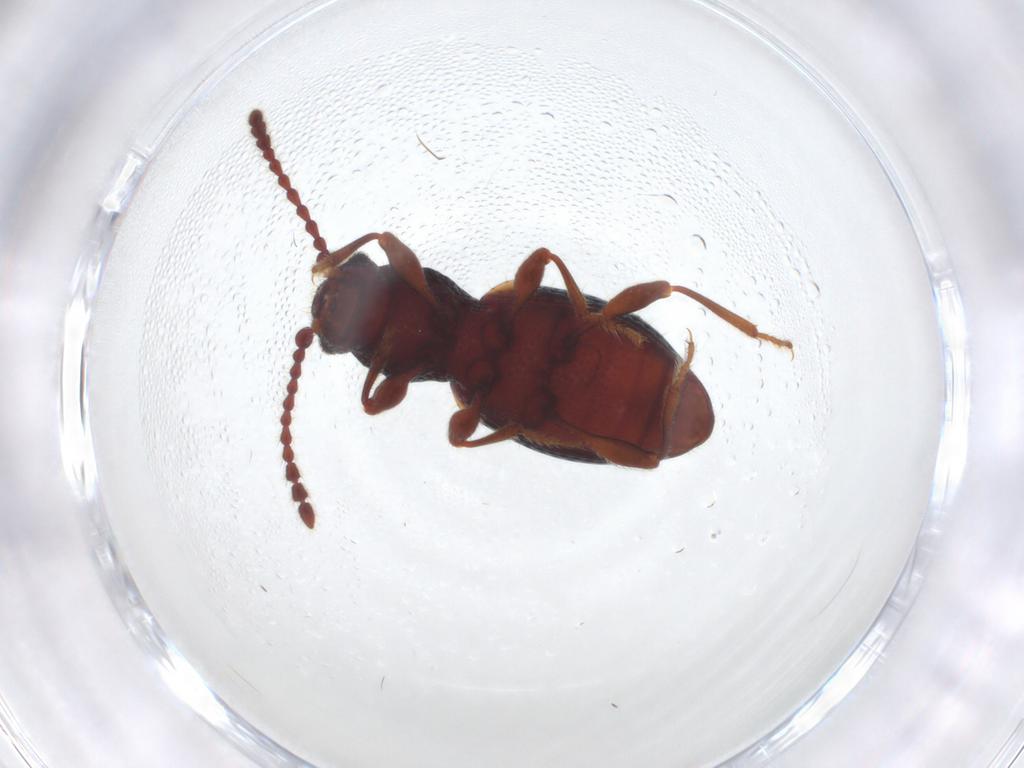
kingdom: Animalia
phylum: Arthropoda
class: Insecta
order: Coleoptera
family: Ptinidae
